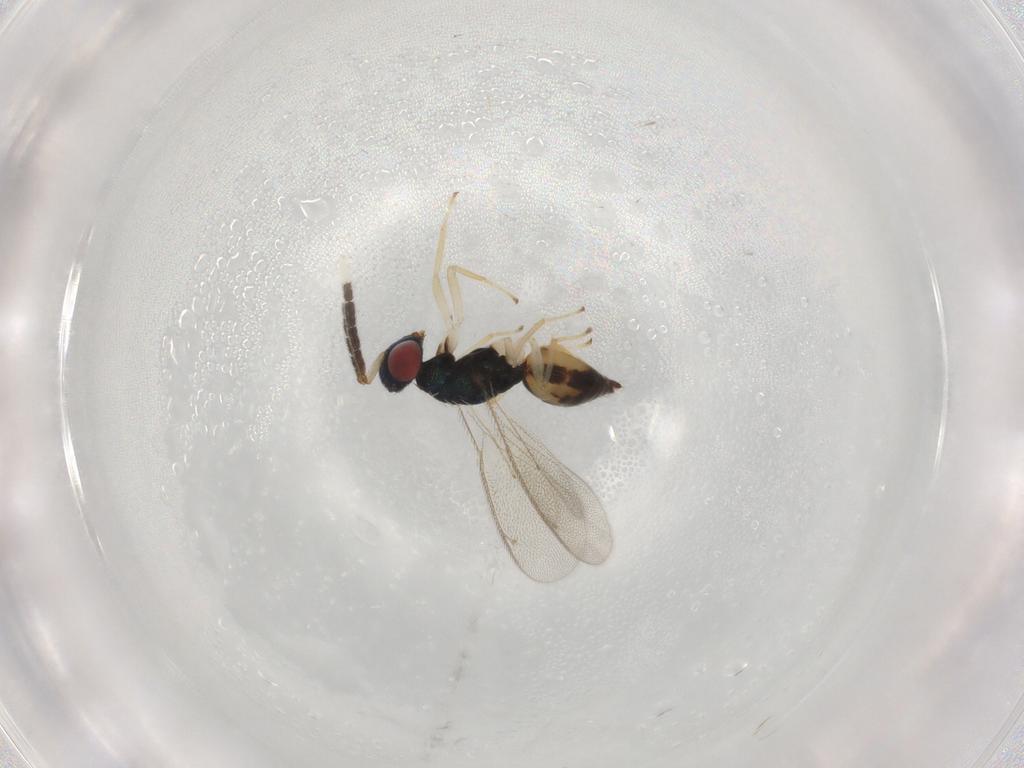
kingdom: Animalia
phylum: Arthropoda
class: Insecta
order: Hymenoptera
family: Eulophidae
